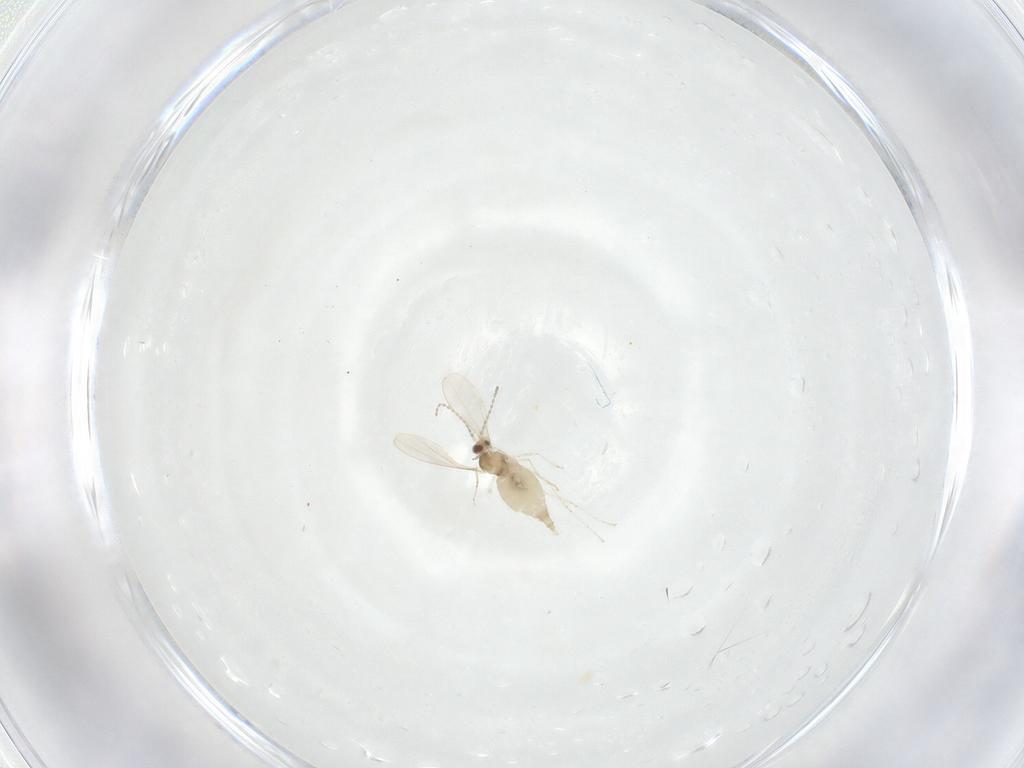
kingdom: Animalia
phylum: Arthropoda
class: Insecta
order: Diptera
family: Cecidomyiidae
